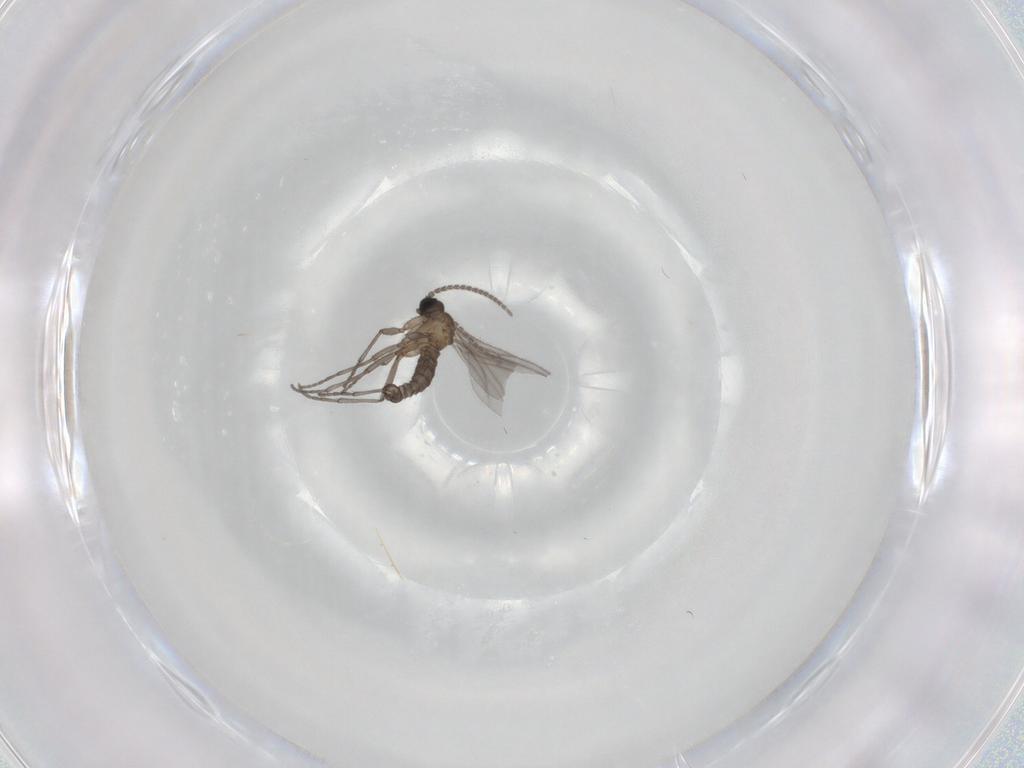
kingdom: Animalia
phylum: Arthropoda
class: Insecta
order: Diptera
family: Sciaridae
